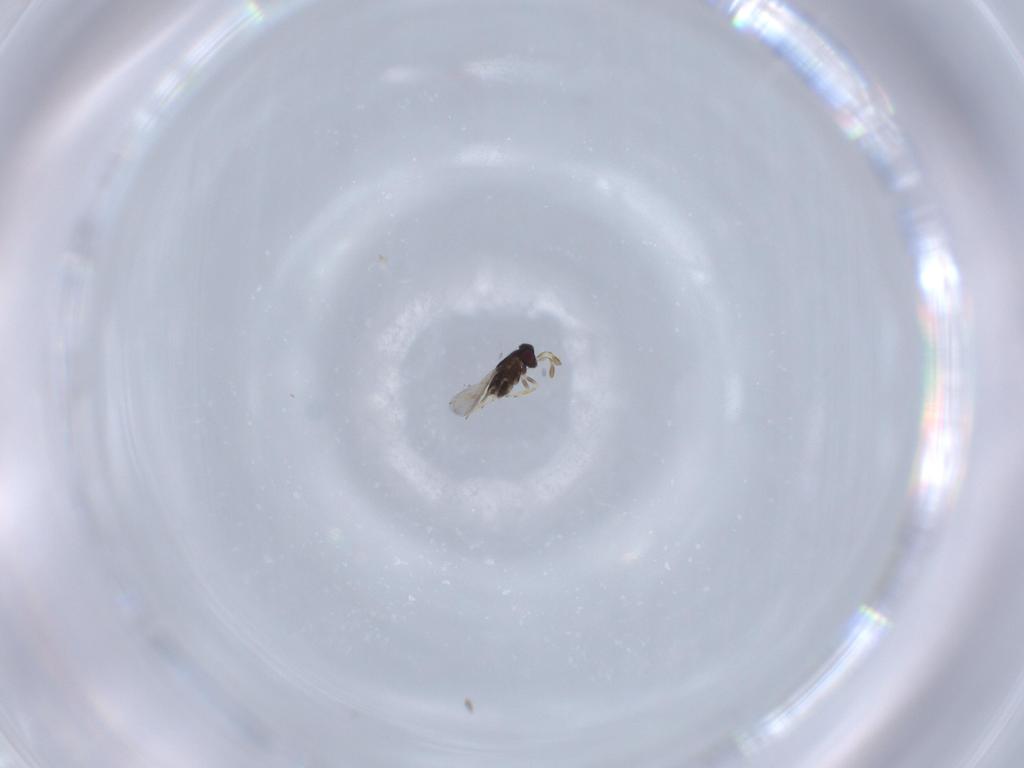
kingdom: Animalia
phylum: Arthropoda
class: Insecta
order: Hymenoptera
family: Encyrtidae
